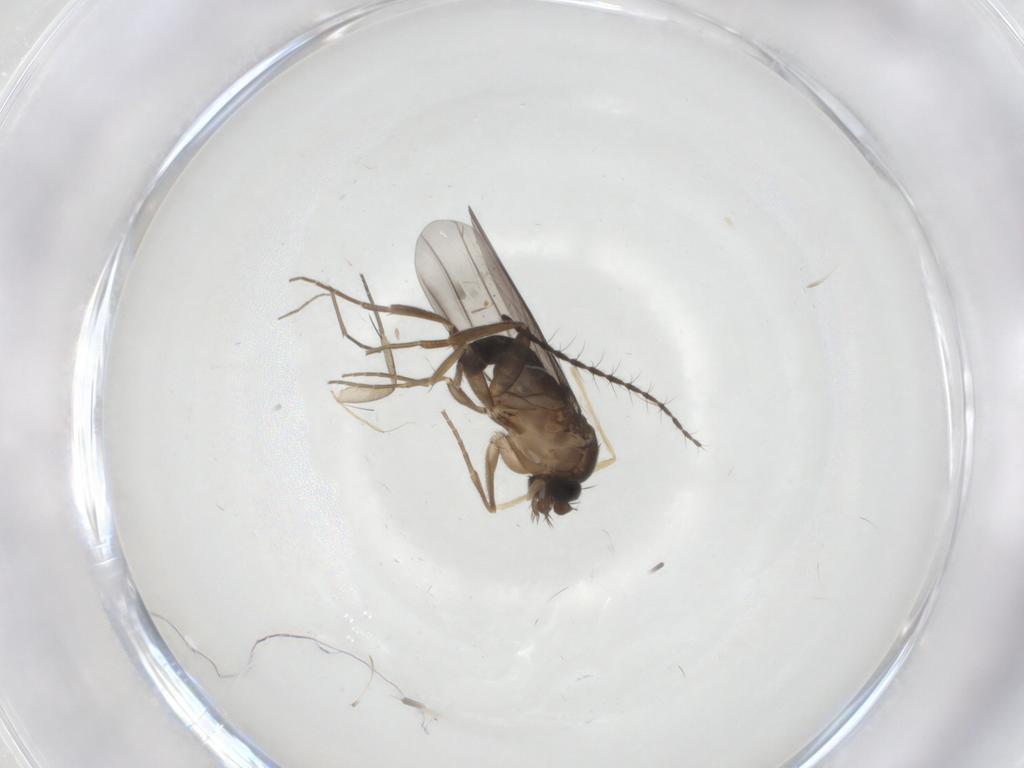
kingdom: Animalia
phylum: Arthropoda
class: Insecta
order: Diptera
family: Phoridae
